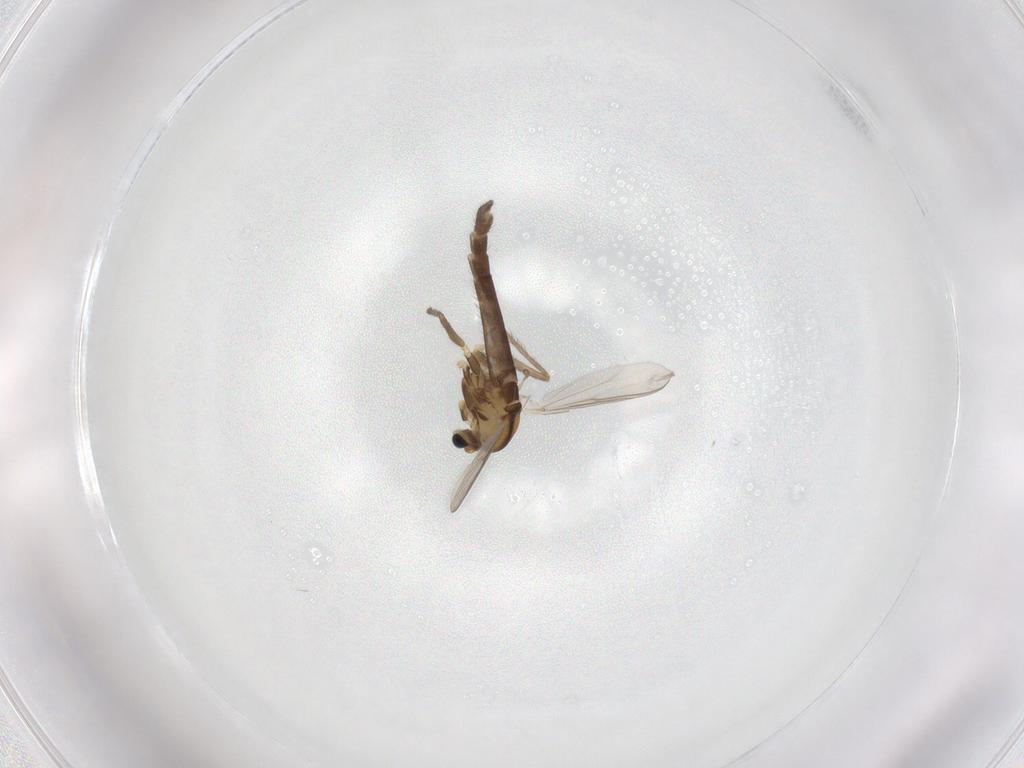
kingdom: Animalia
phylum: Arthropoda
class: Insecta
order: Diptera
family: Chironomidae
